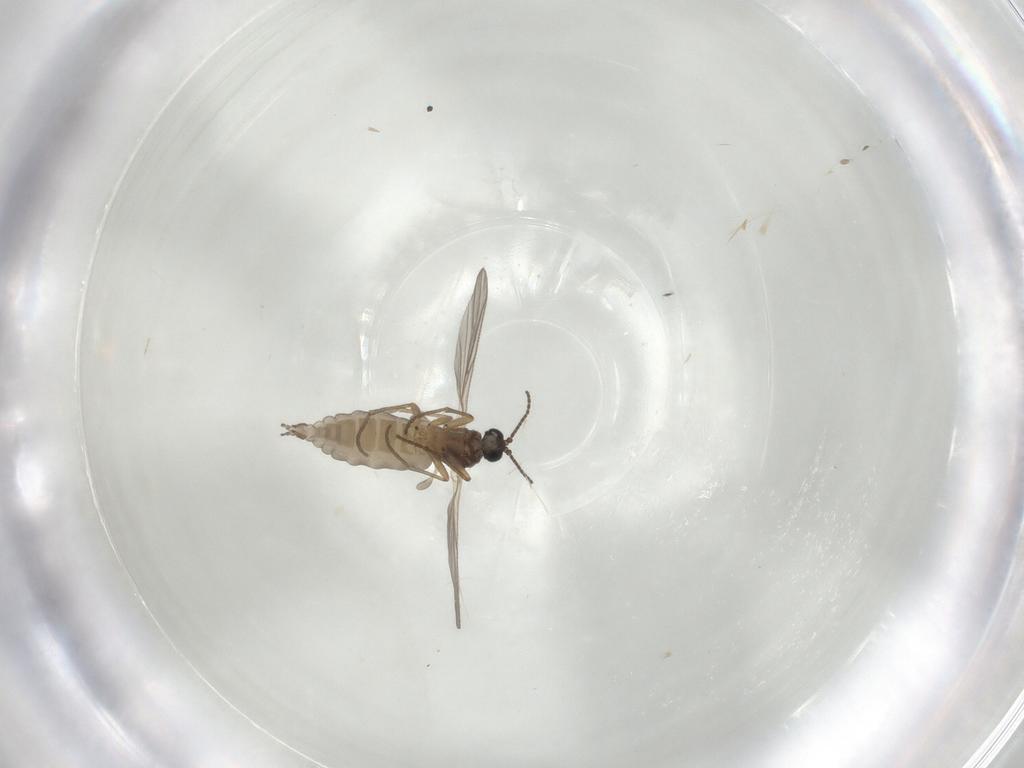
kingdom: Animalia
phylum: Arthropoda
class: Insecta
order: Diptera
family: Sciaridae
